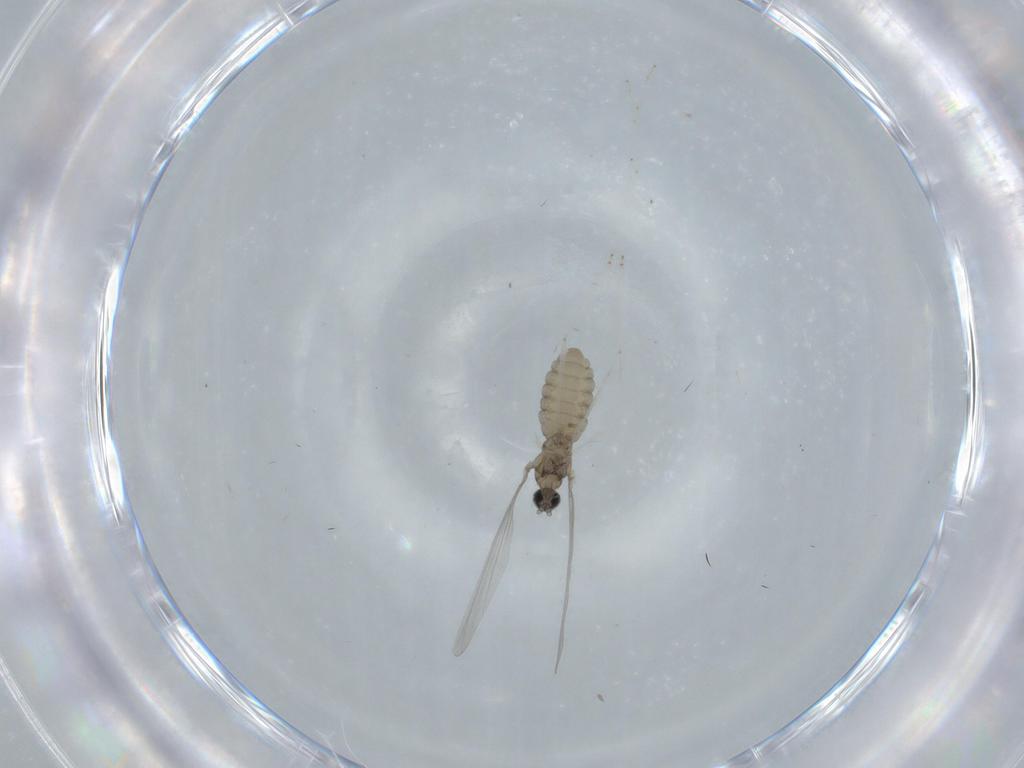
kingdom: Animalia
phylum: Arthropoda
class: Insecta
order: Diptera
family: Cecidomyiidae
